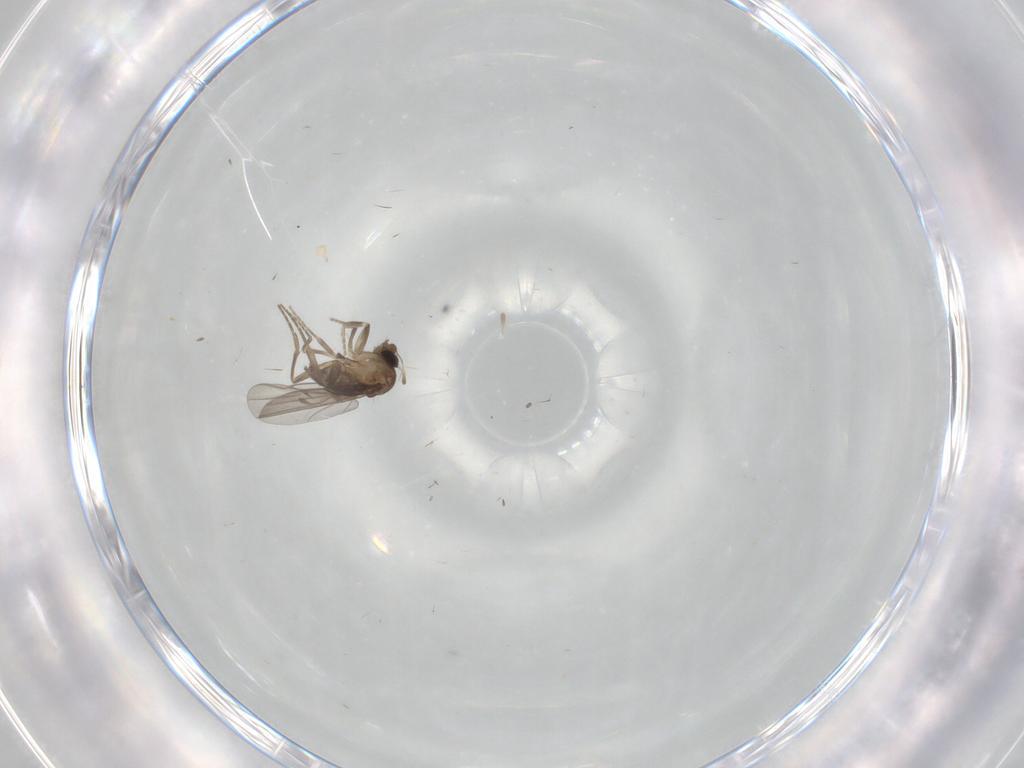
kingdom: Animalia
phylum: Arthropoda
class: Insecta
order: Diptera
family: Phoridae
